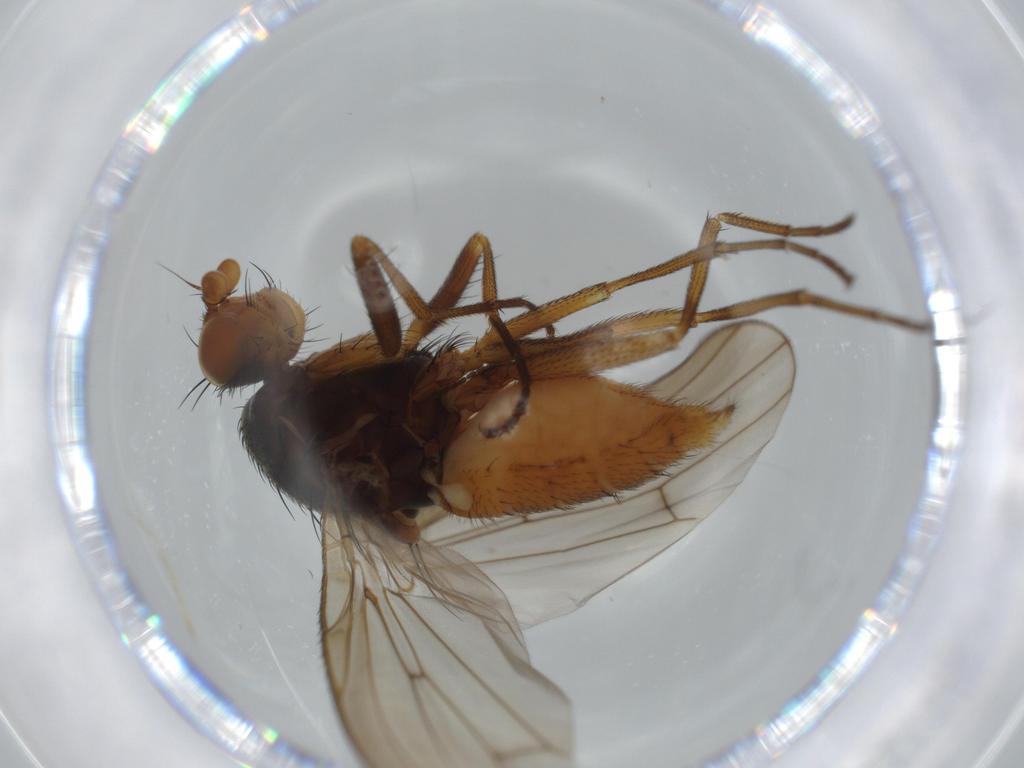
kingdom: Animalia
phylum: Arthropoda
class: Insecta
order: Diptera
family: Heleomyzidae
